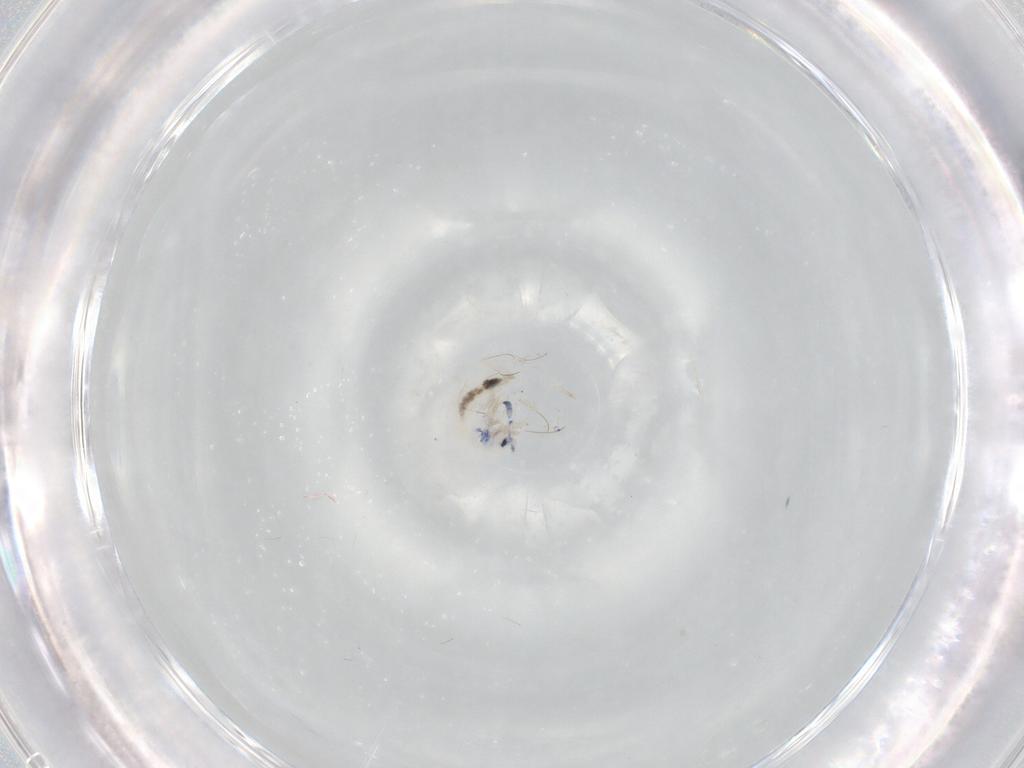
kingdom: Animalia
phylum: Arthropoda
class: Collembola
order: Entomobryomorpha
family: Entomobryidae
